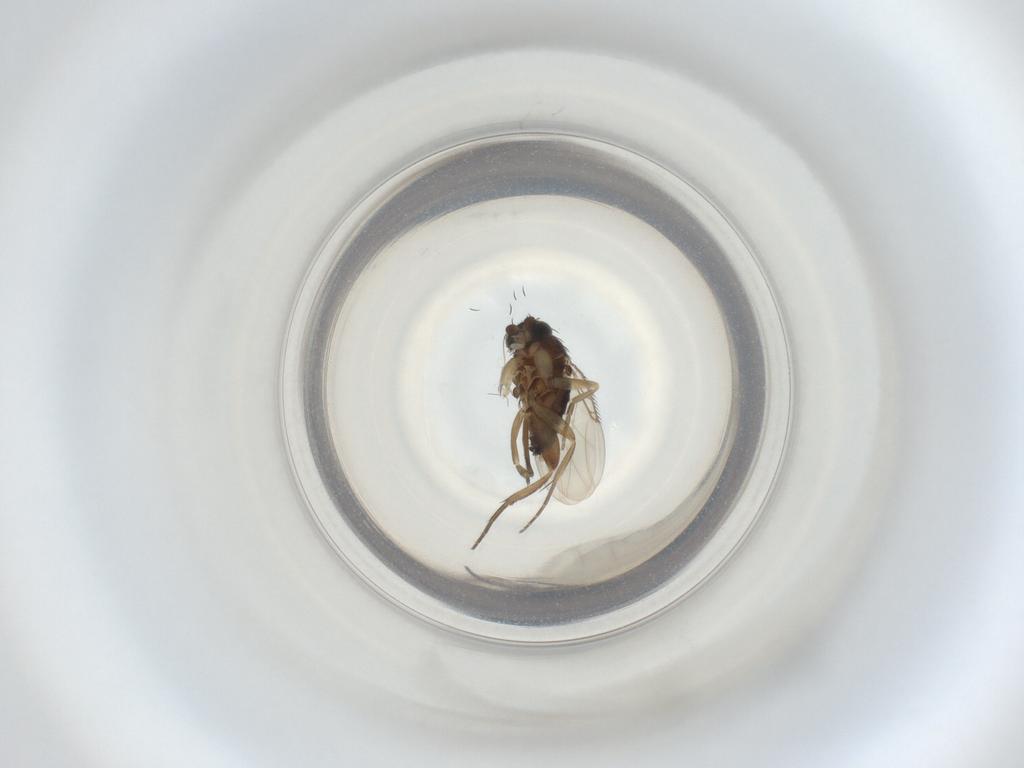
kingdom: Animalia
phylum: Arthropoda
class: Insecta
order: Diptera
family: Phoridae
